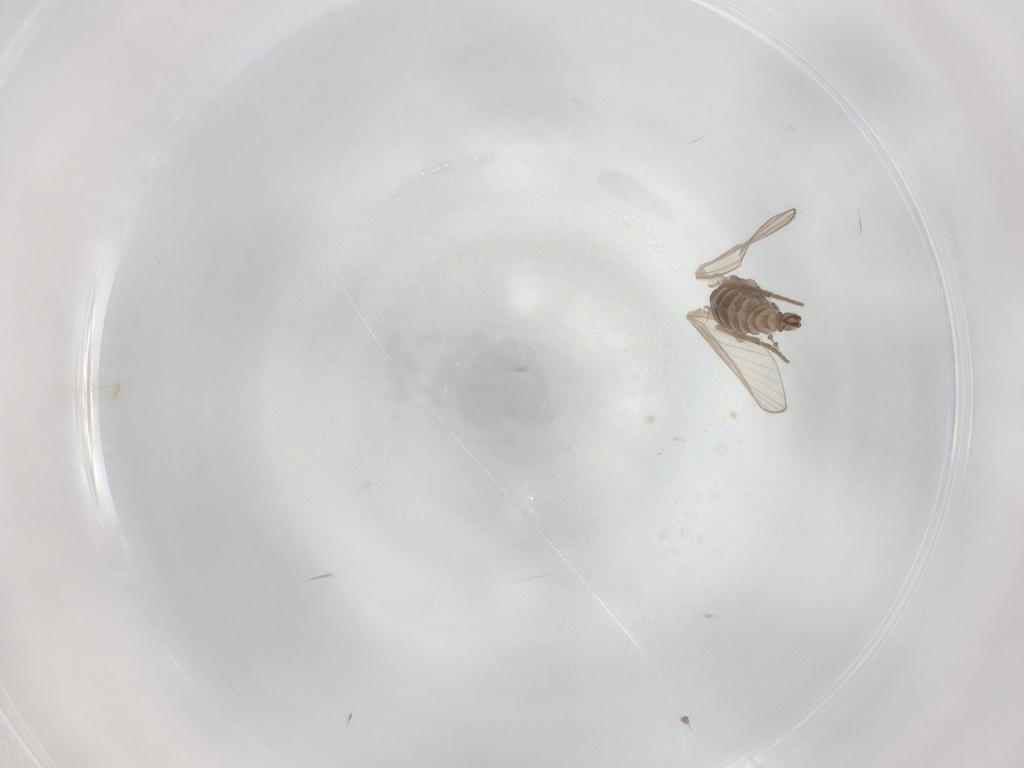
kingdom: Animalia
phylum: Arthropoda
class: Insecta
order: Diptera
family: Psychodidae
